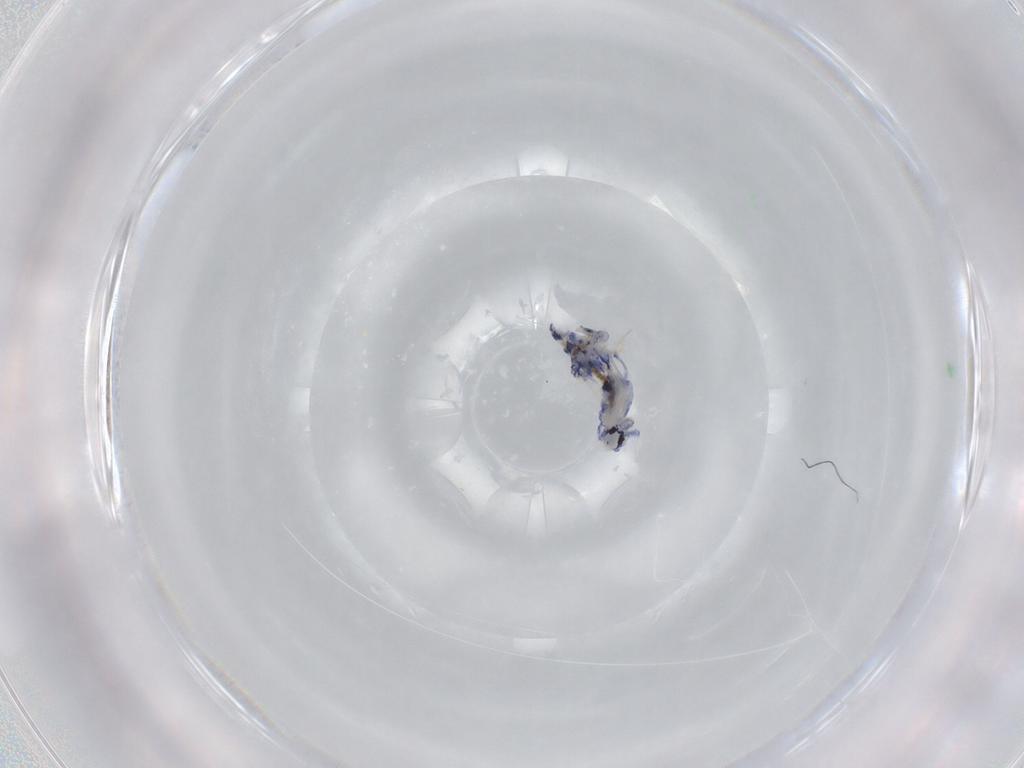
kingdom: Animalia
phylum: Arthropoda
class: Collembola
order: Entomobryomorpha
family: Entomobryidae
